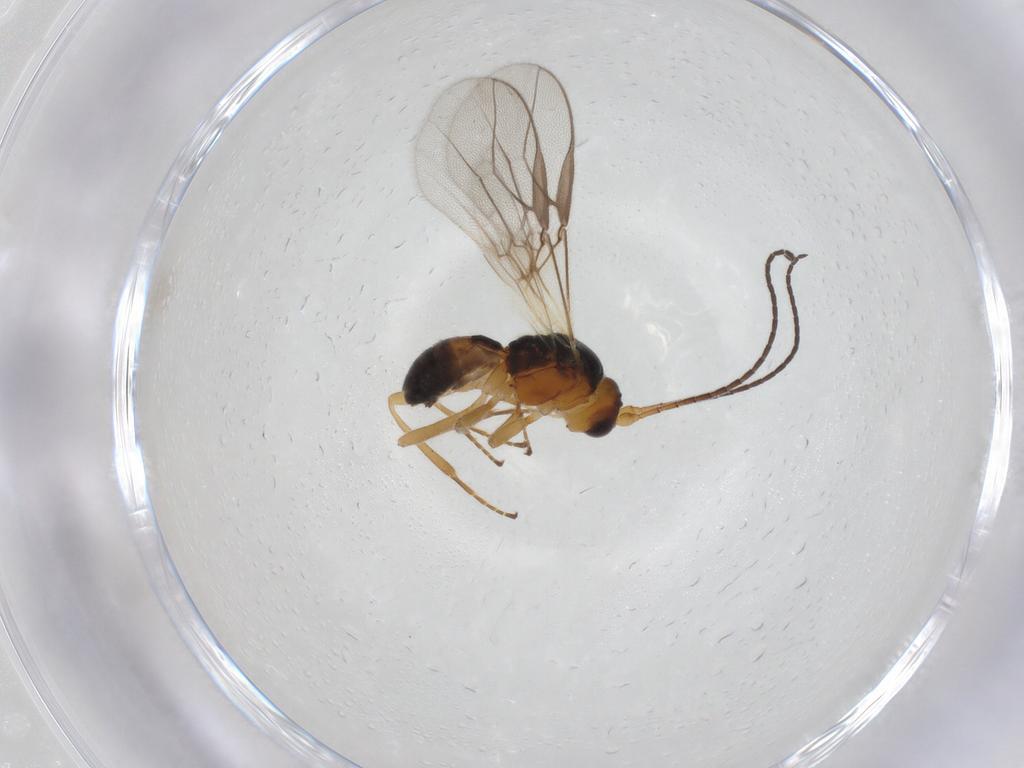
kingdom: Animalia
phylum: Arthropoda
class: Insecta
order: Hymenoptera
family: Braconidae
